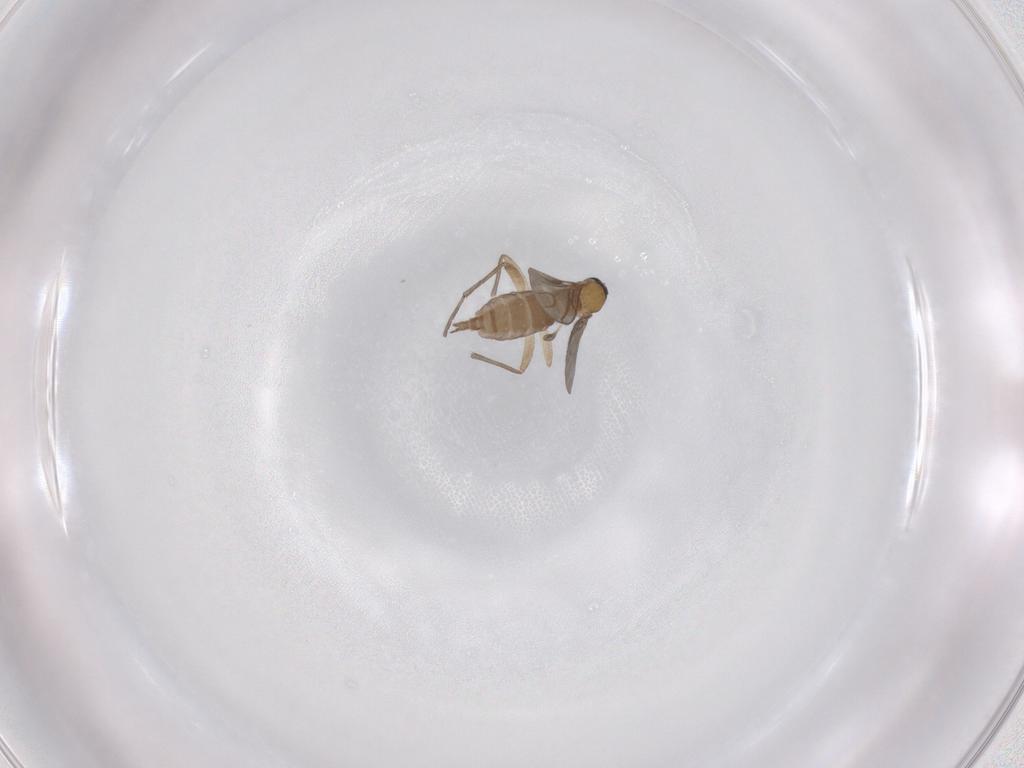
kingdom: Animalia
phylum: Arthropoda
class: Insecta
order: Diptera
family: Sciaridae
